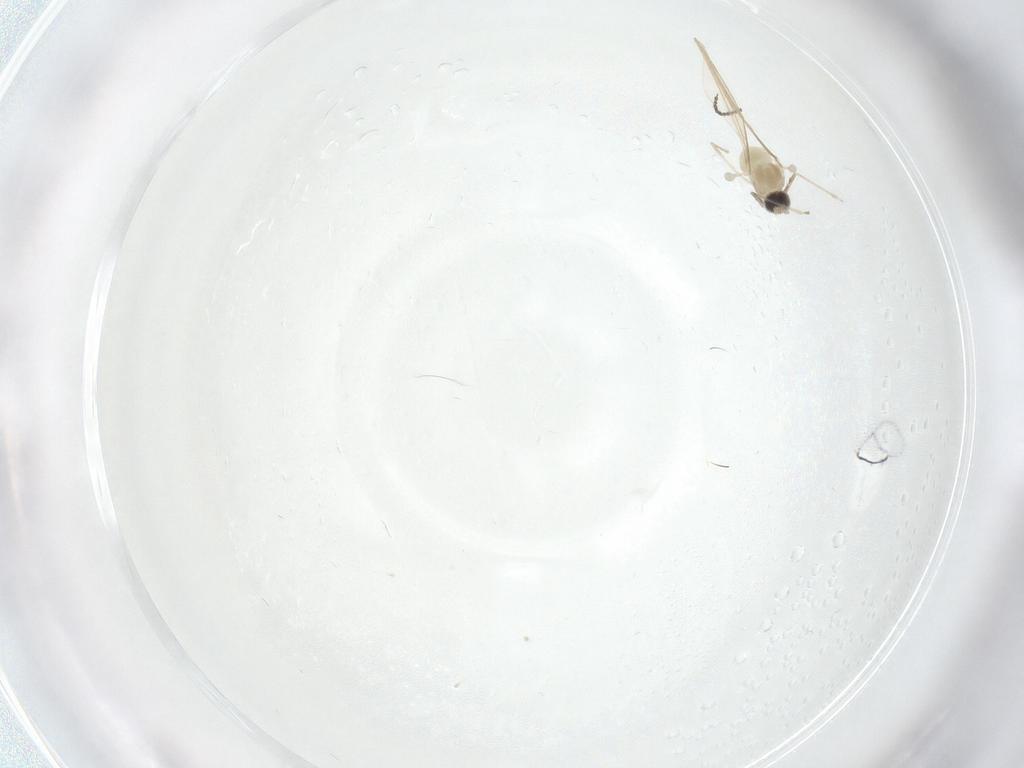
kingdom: Animalia
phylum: Arthropoda
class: Insecta
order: Diptera
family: Cecidomyiidae
